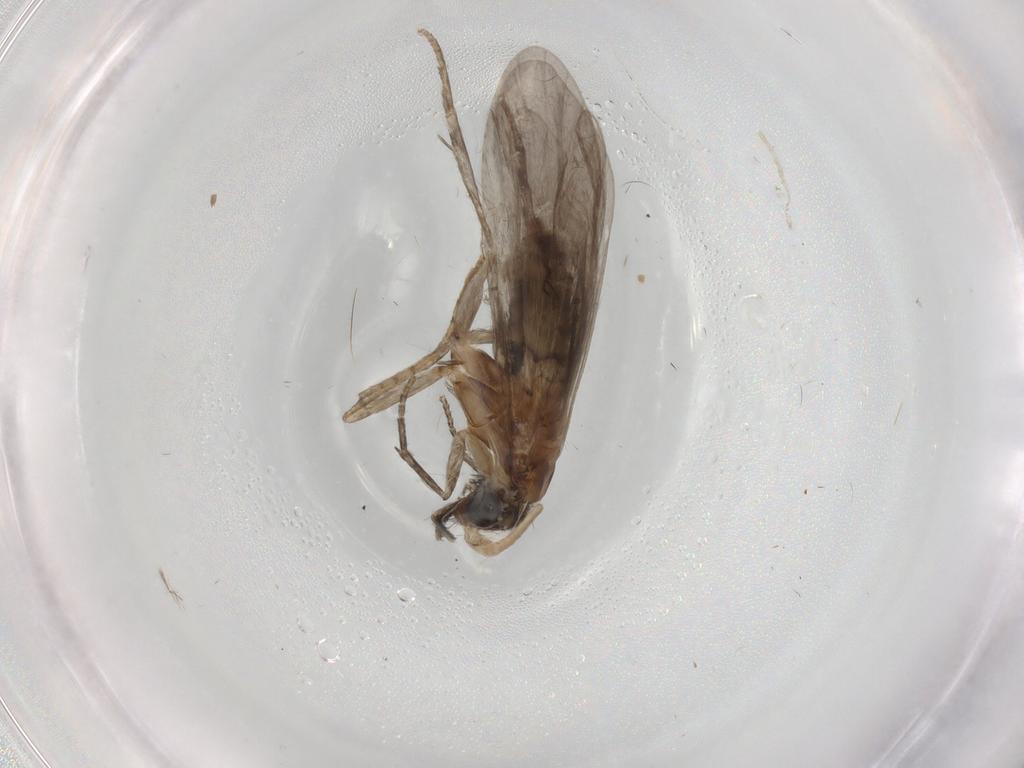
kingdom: Animalia
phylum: Arthropoda
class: Insecta
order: Trichoptera
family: Helicopsychidae
